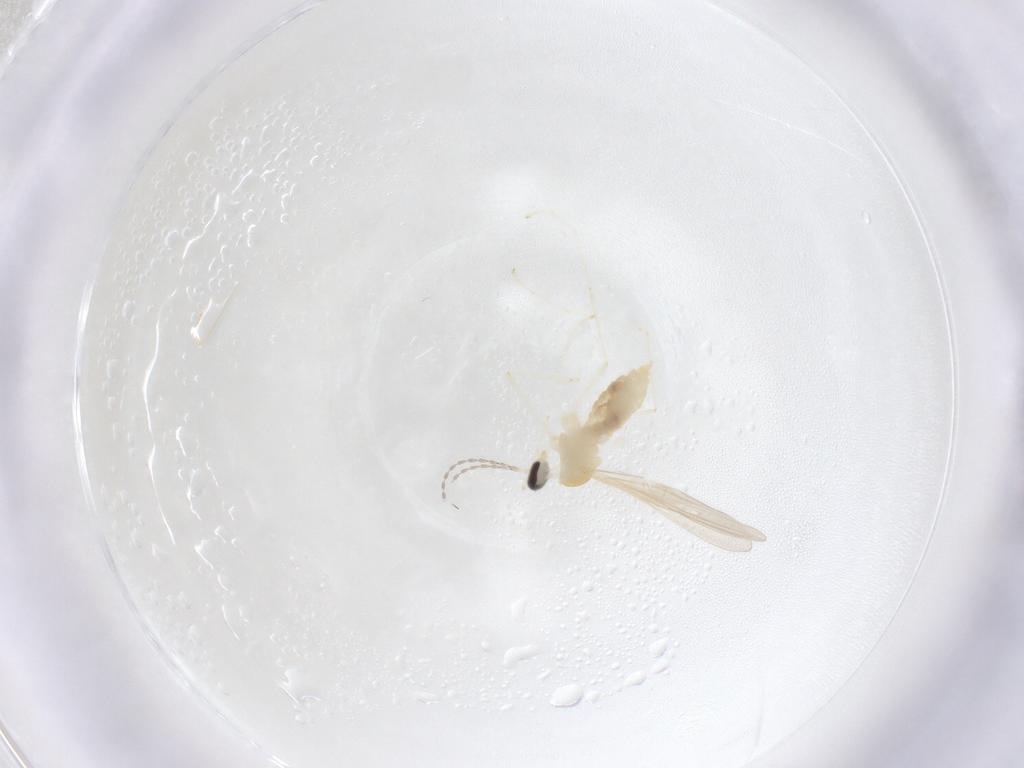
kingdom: Animalia
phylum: Arthropoda
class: Insecta
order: Diptera
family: Cecidomyiidae
